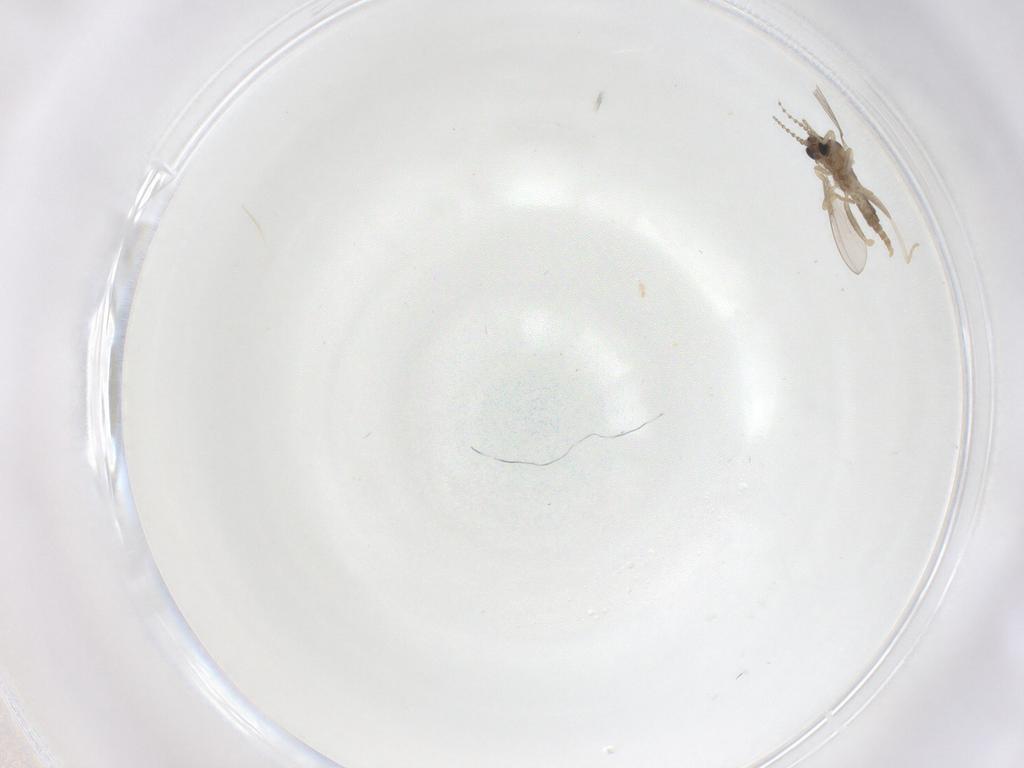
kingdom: Animalia
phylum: Arthropoda
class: Insecta
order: Diptera
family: Cecidomyiidae
